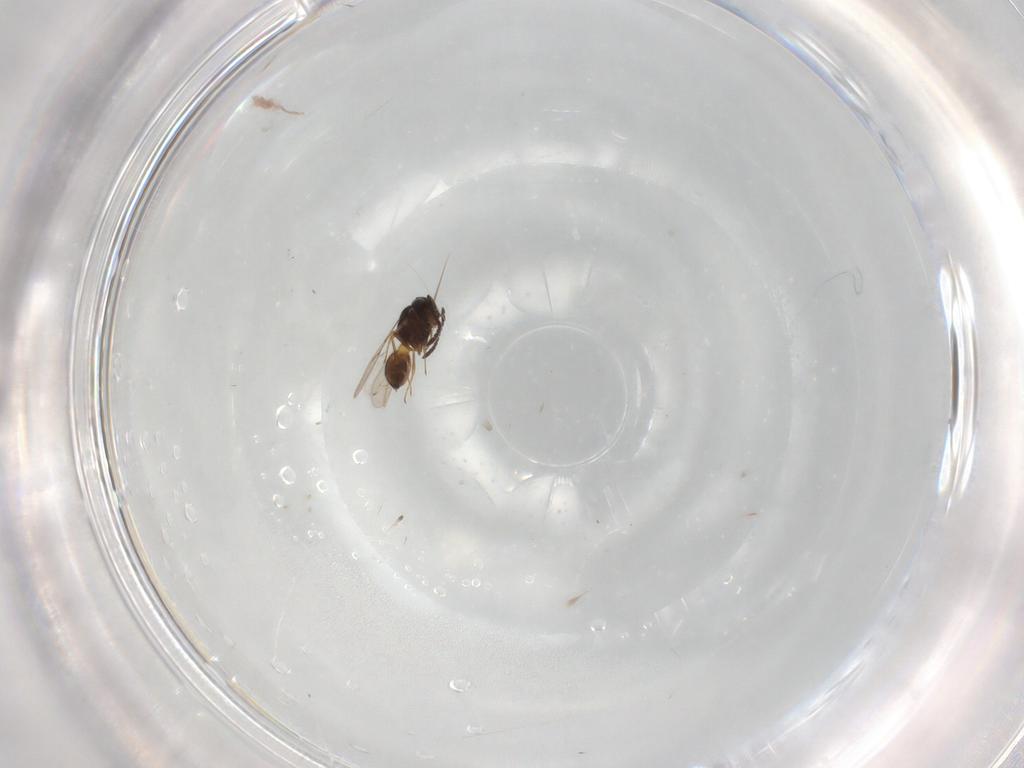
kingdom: Animalia
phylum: Arthropoda
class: Insecta
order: Hymenoptera
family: Scelionidae
